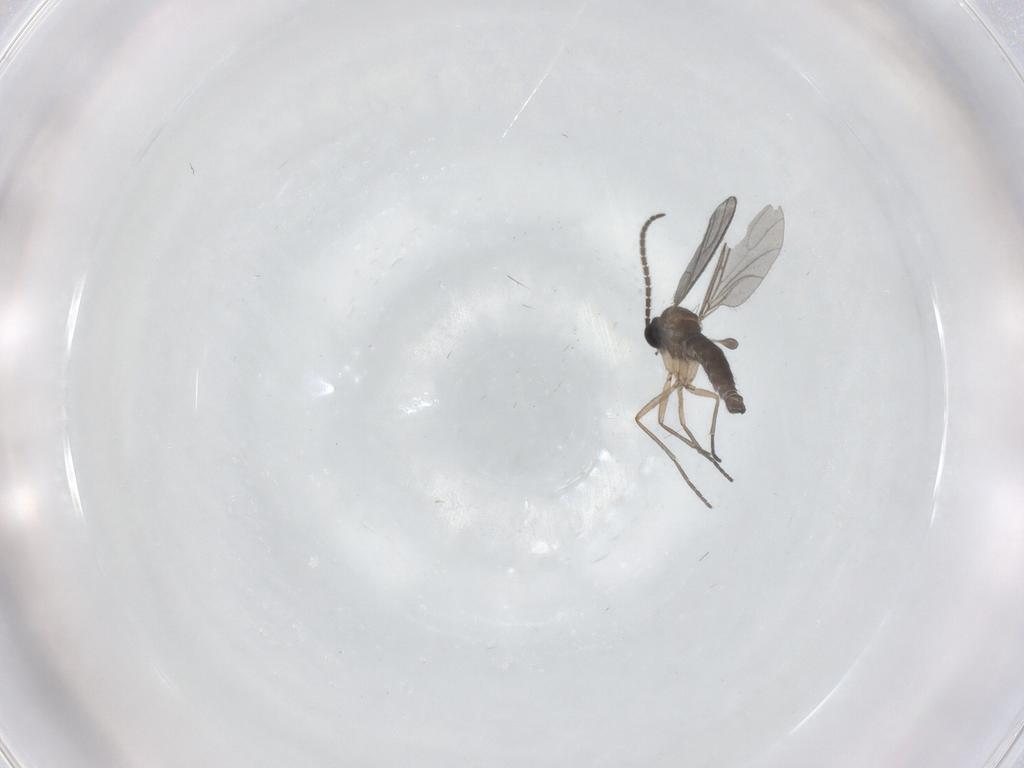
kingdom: Animalia
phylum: Arthropoda
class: Insecta
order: Diptera
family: Sciaridae
